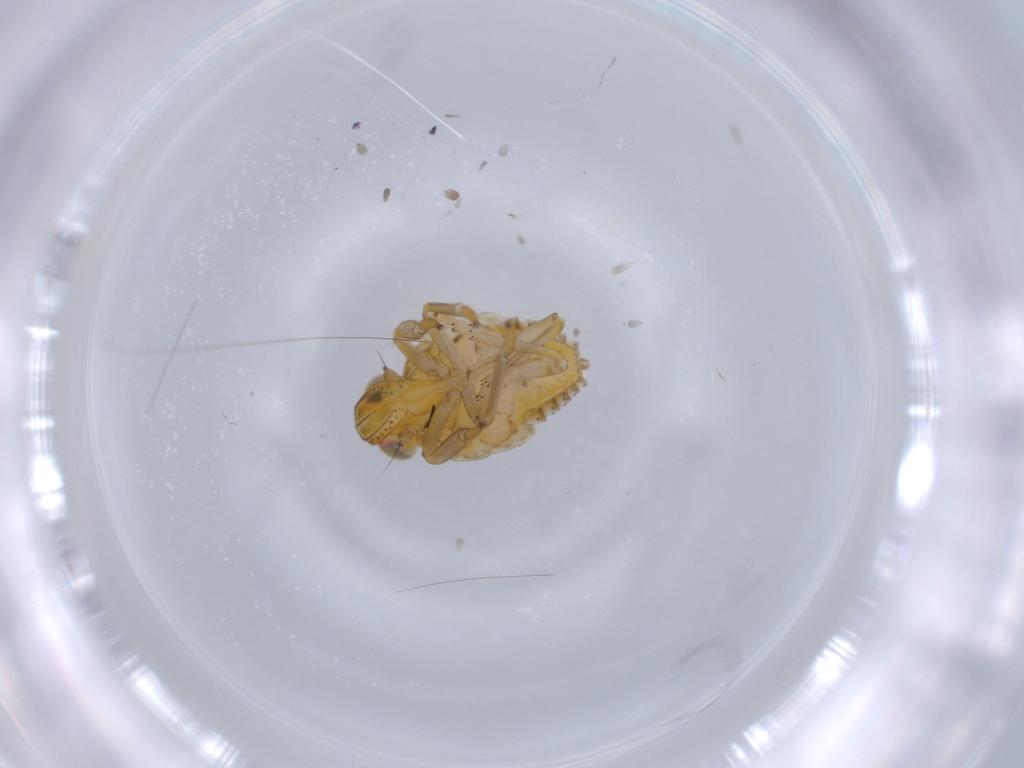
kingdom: Animalia
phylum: Arthropoda
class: Insecta
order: Hemiptera
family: Issidae
